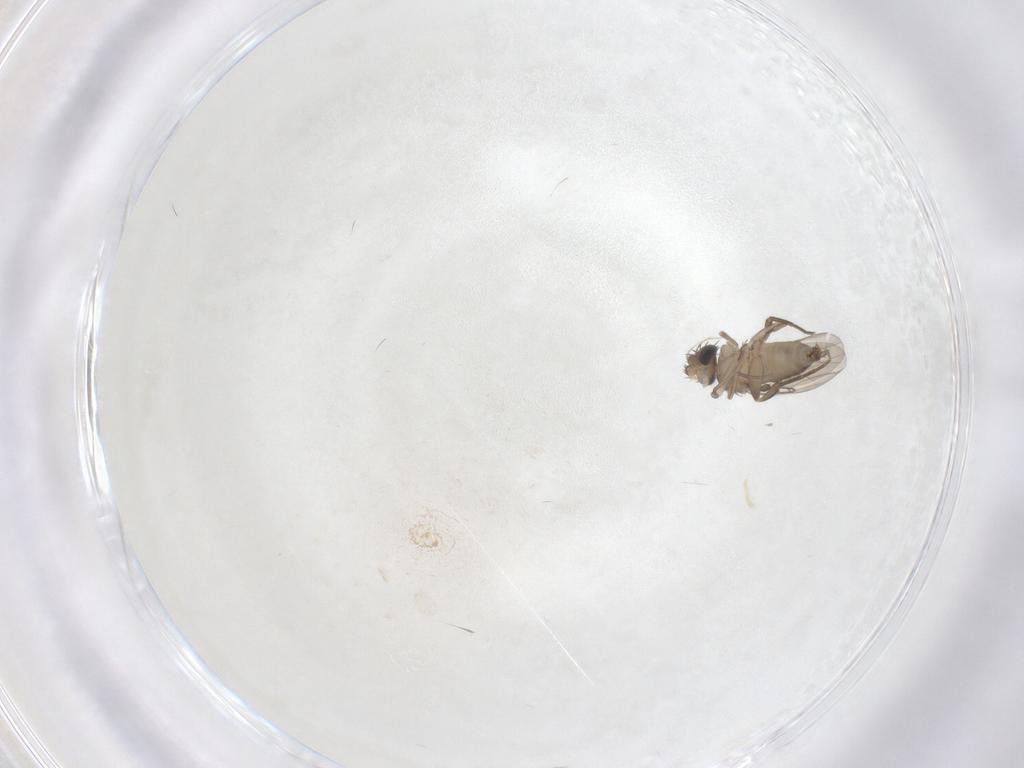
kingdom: Animalia
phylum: Arthropoda
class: Insecta
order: Diptera
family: Phoridae
